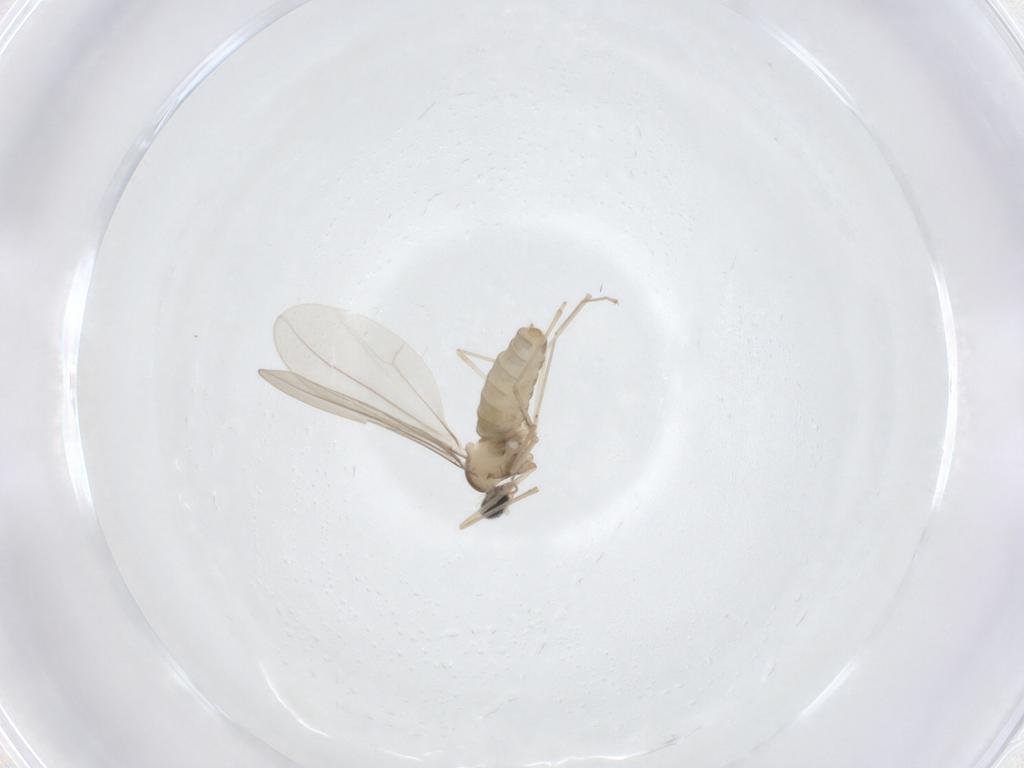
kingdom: Animalia
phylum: Arthropoda
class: Insecta
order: Diptera
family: Cecidomyiidae
